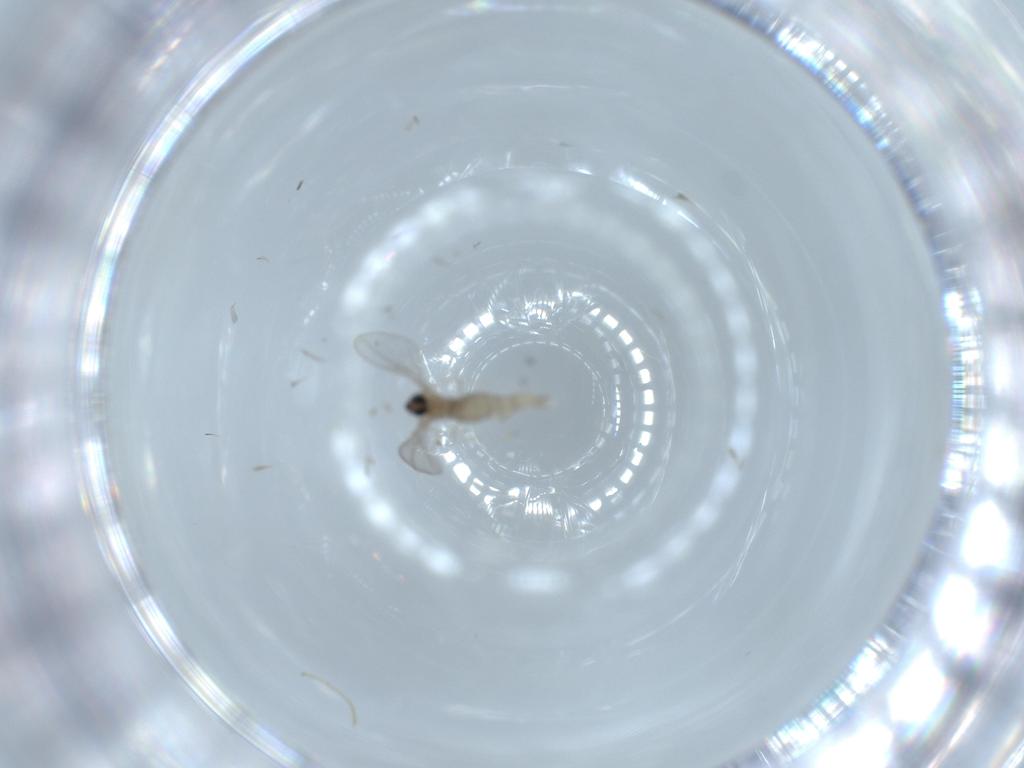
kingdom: Animalia
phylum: Arthropoda
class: Insecta
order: Diptera
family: Cecidomyiidae
